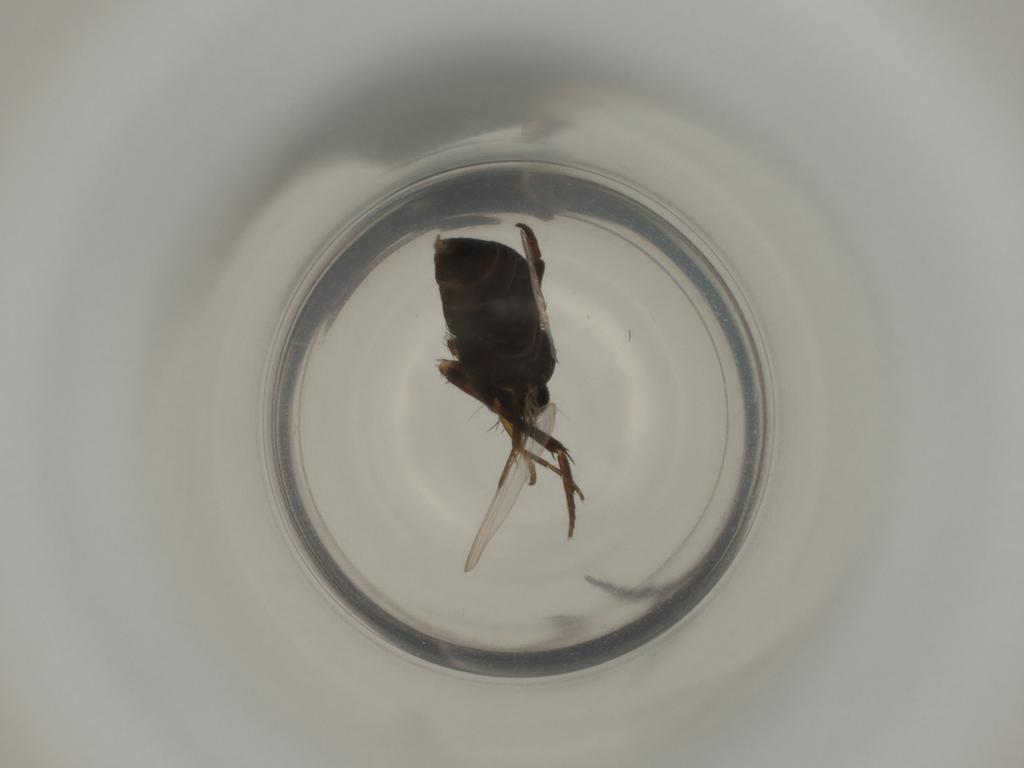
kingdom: Animalia
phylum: Arthropoda
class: Insecta
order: Diptera
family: Phoridae
